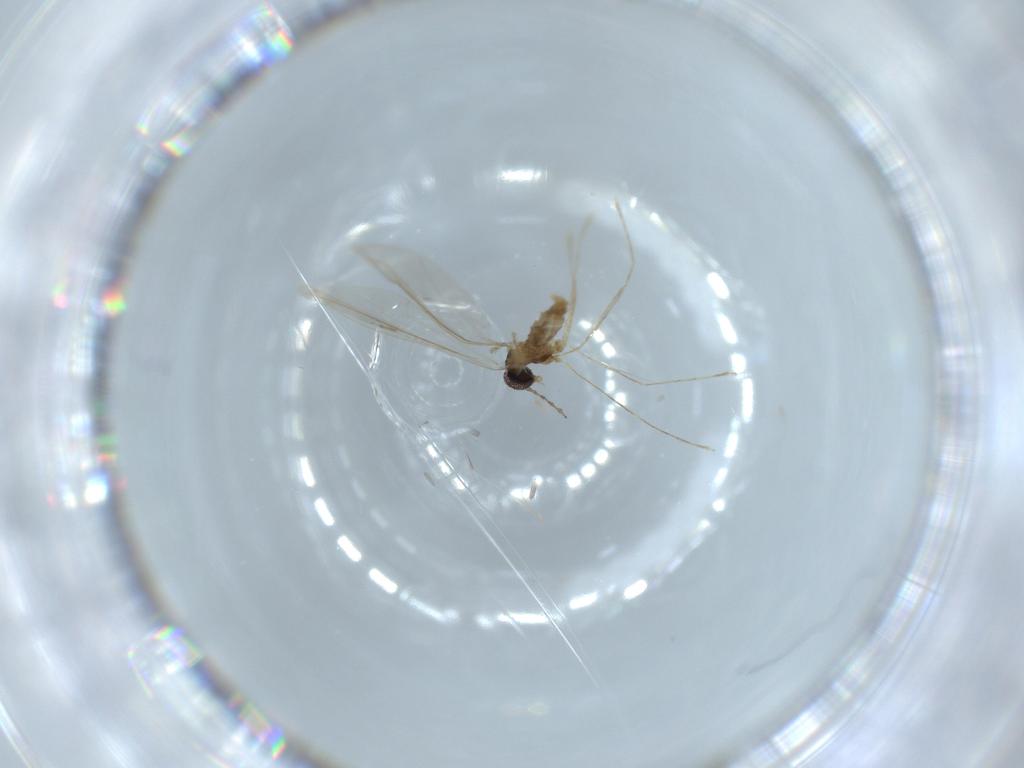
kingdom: Animalia
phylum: Arthropoda
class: Insecta
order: Diptera
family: Cecidomyiidae
